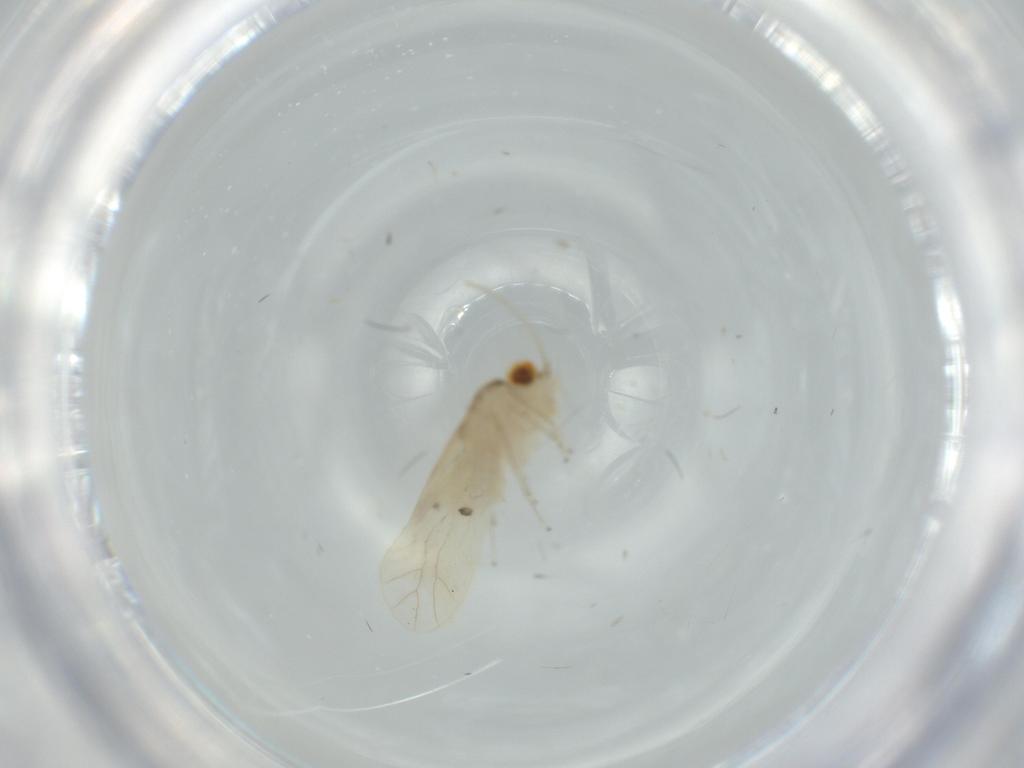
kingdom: Animalia
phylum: Arthropoda
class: Insecta
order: Psocodea
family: Caeciliusidae
